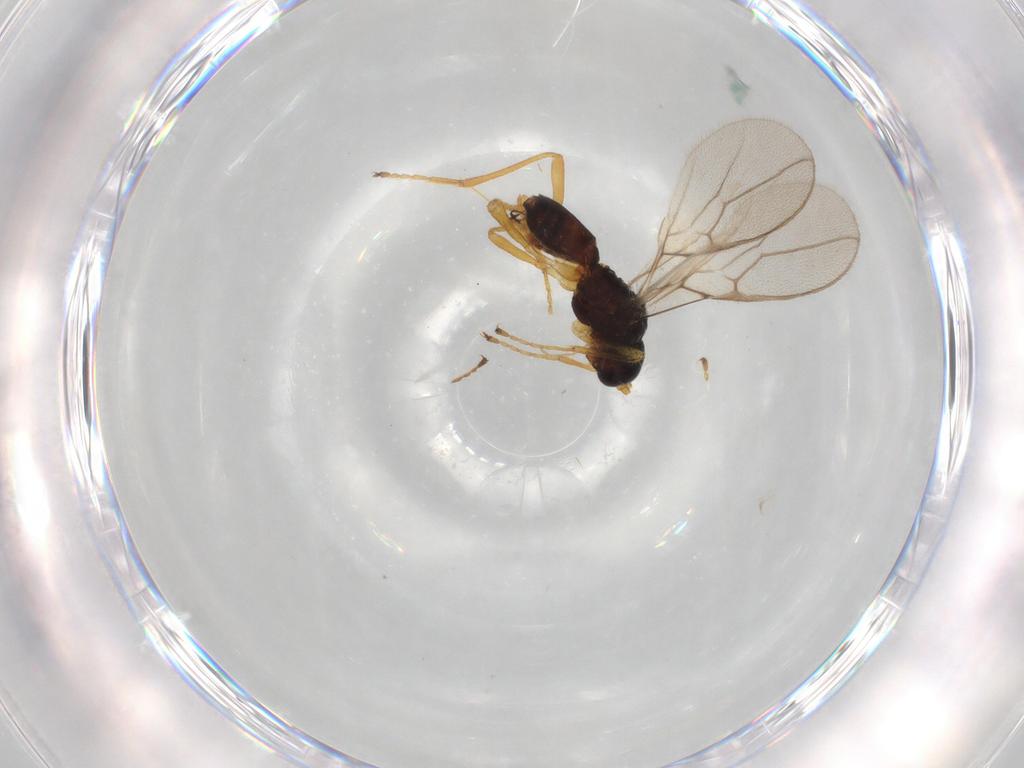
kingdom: Animalia
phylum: Arthropoda
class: Insecta
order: Hymenoptera
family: Braconidae
